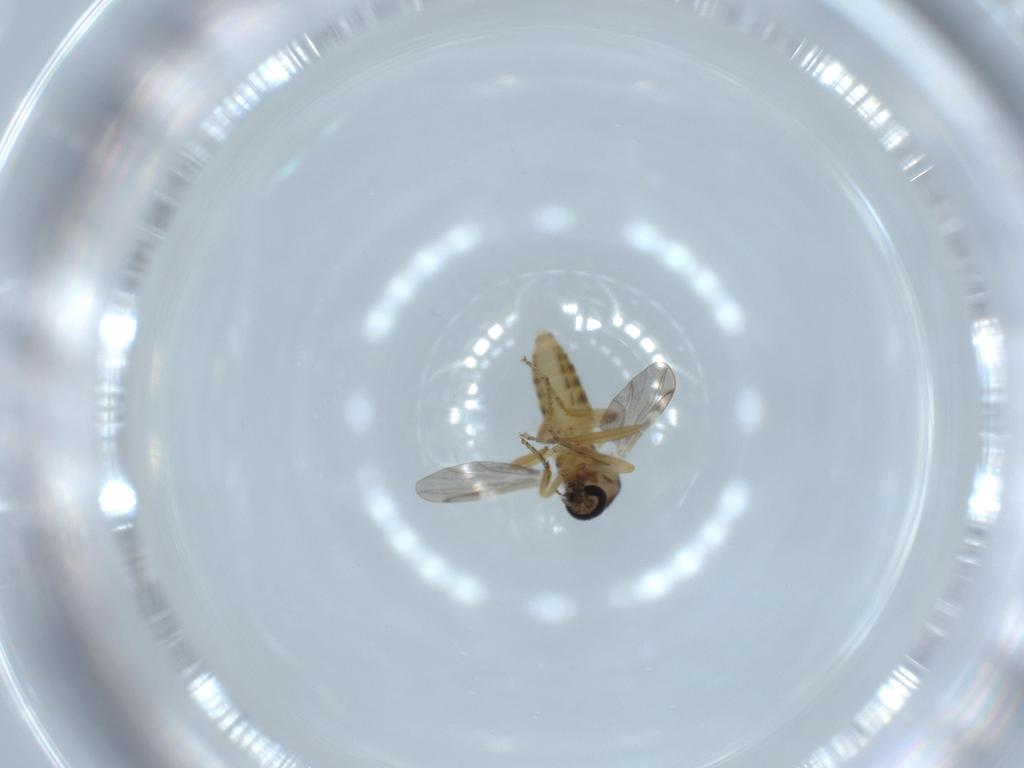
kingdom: Animalia
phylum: Arthropoda
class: Insecta
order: Diptera
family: Ceratopogonidae
